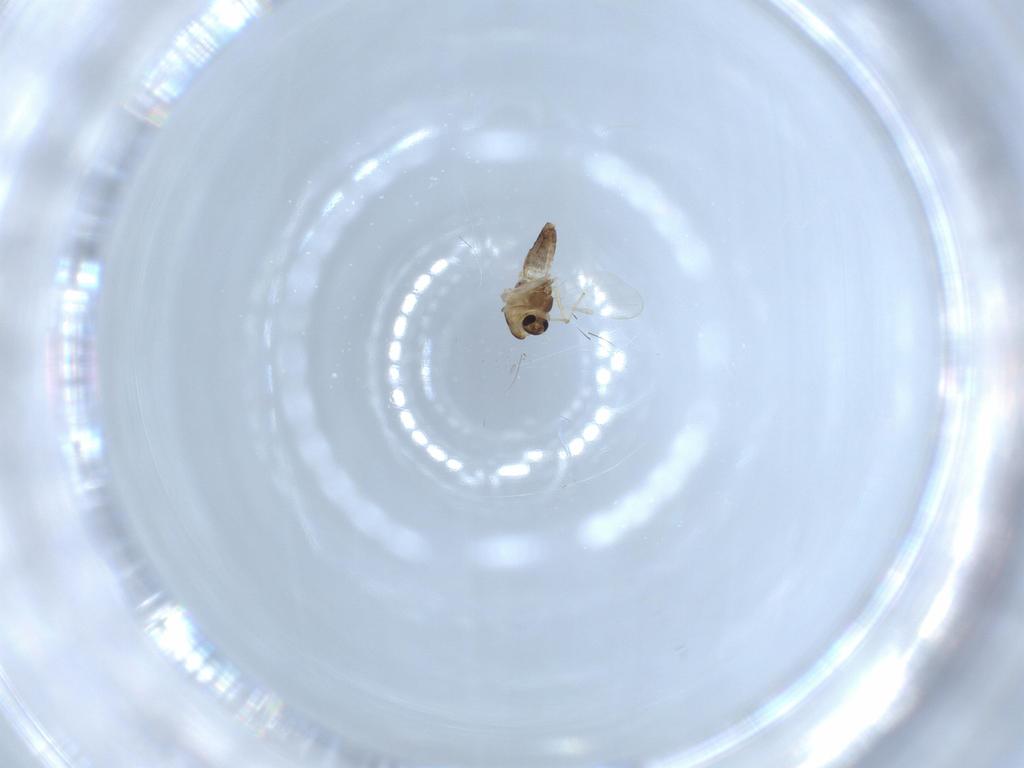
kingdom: Animalia
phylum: Arthropoda
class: Insecta
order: Diptera
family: Chironomidae
